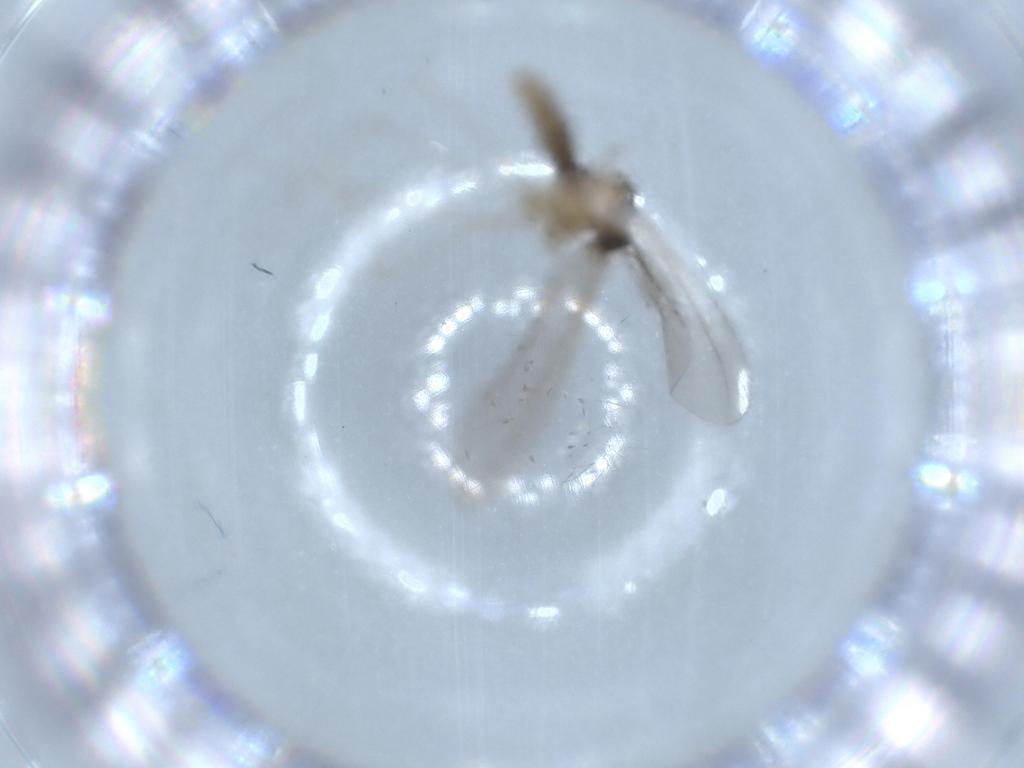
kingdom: Animalia
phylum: Arthropoda
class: Insecta
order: Diptera
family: Cecidomyiidae
